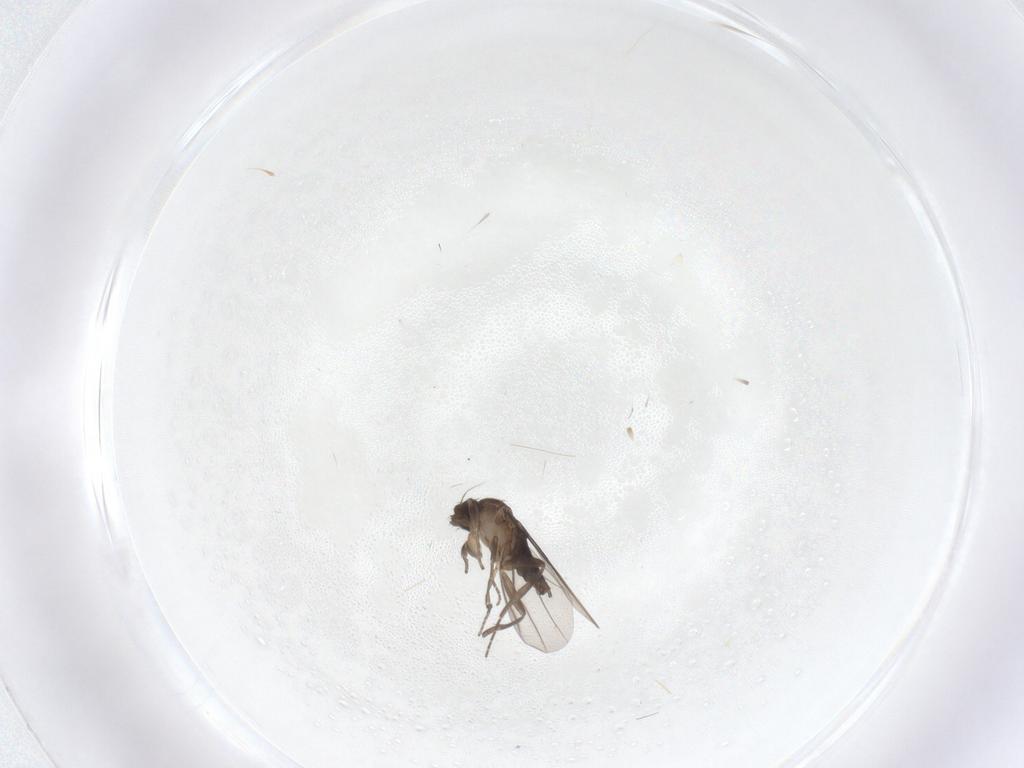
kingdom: Animalia
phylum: Arthropoda
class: Insecta
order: Diptera
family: Phoridae
